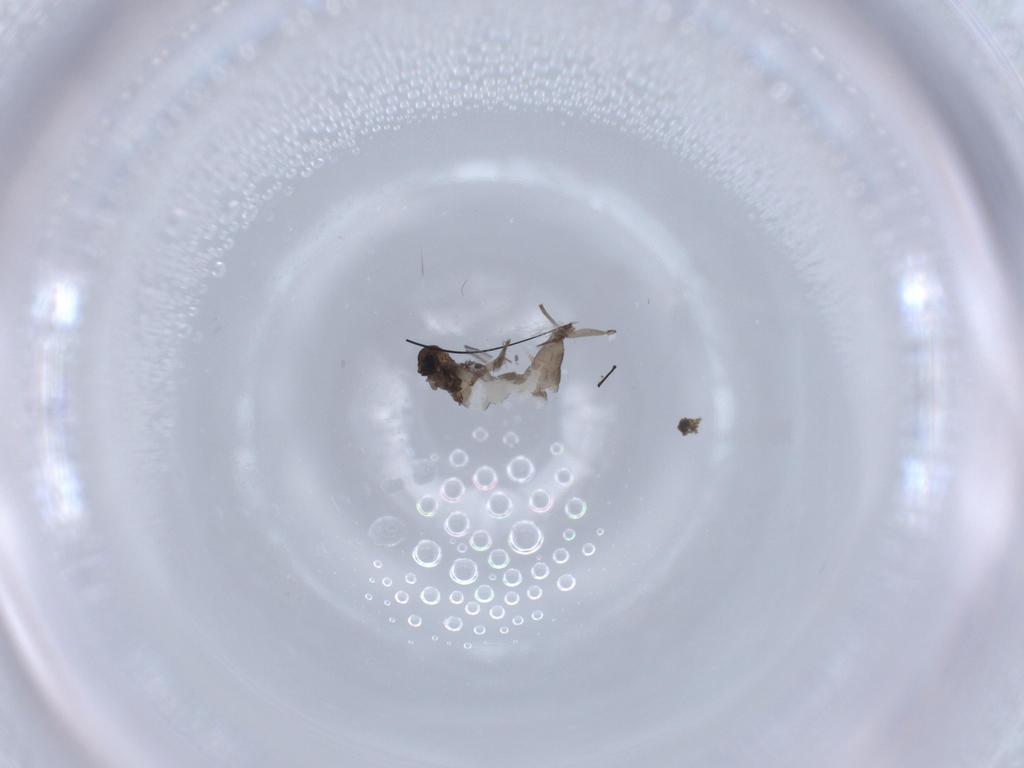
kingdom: Animalia
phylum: Arthropoda
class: Insecta
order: Diptera
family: Sciaridae
